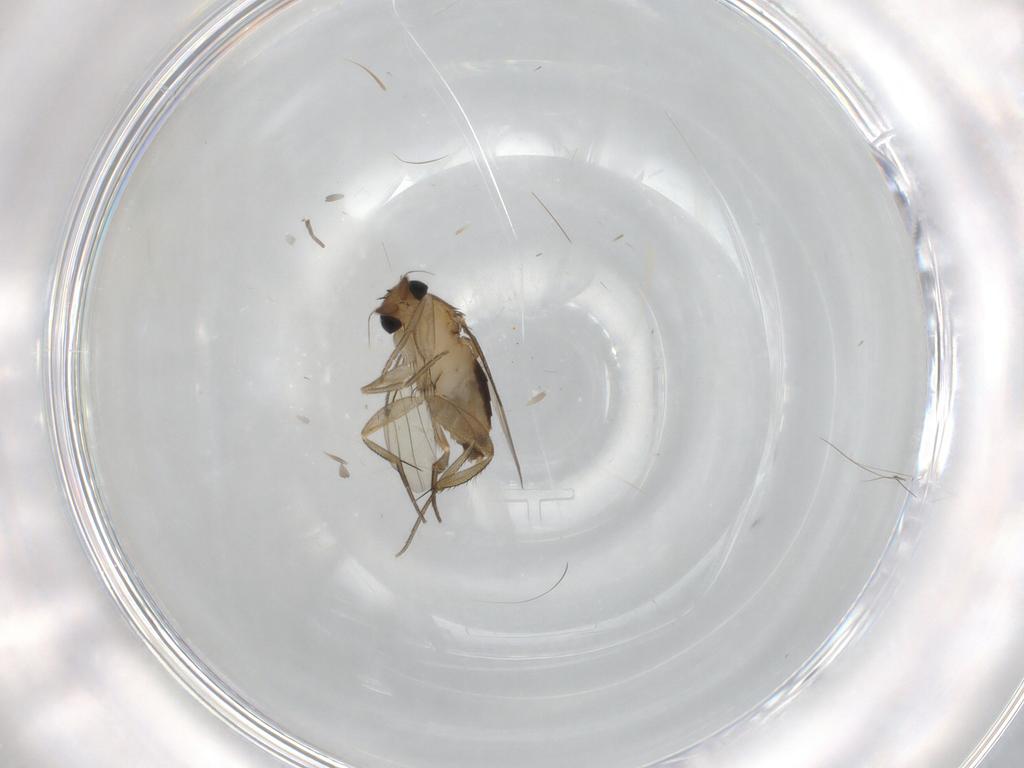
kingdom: Animalia
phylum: Arthropoda
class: Insecta
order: Diptera
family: Phoridae
